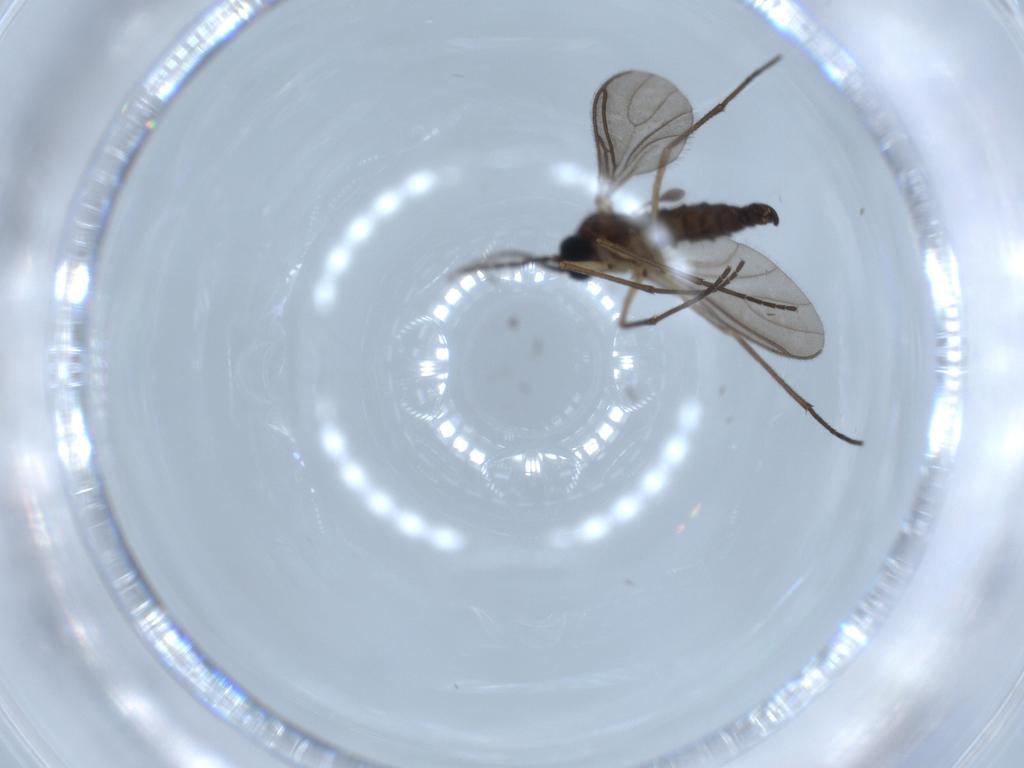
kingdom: Animalia
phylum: Arthropoda
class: Insecta
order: Diptera
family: Sciaridae
